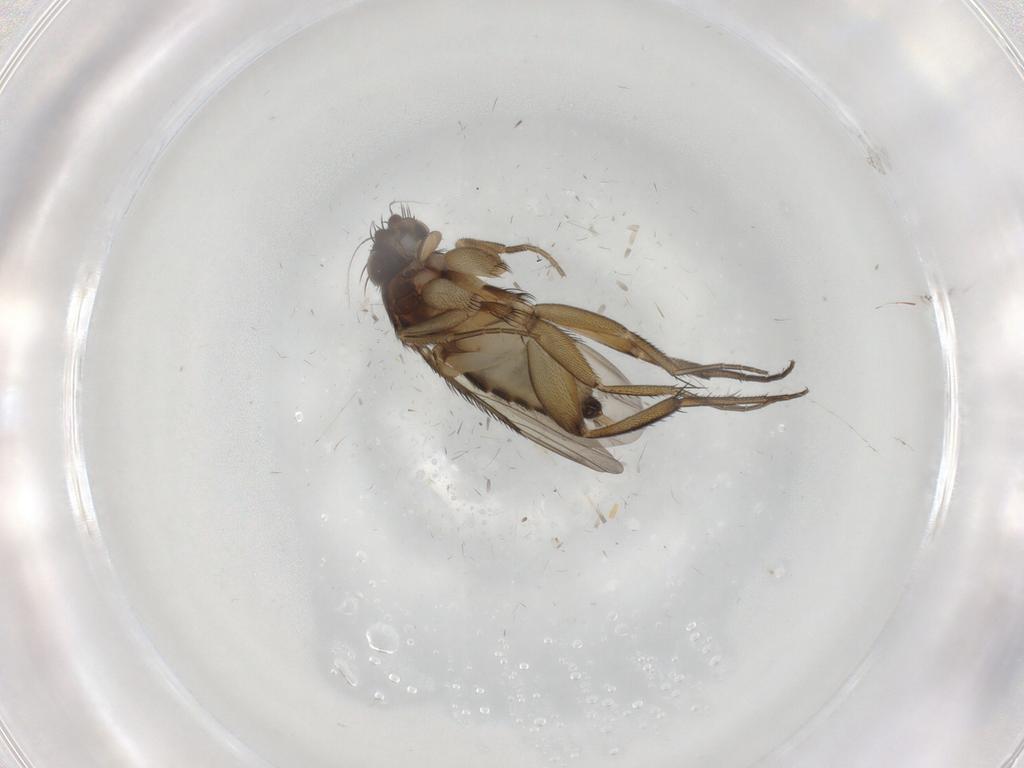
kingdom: Animalia
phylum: Arthropoda
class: Insecta
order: Diptera
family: Phoridae
